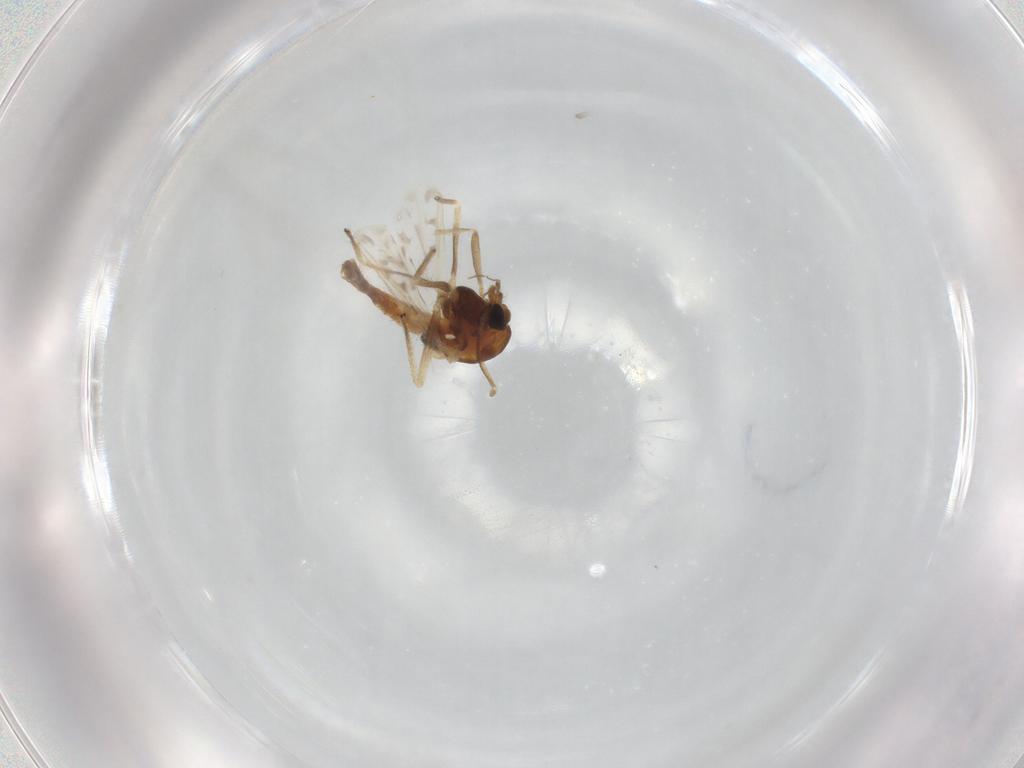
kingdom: Animalia
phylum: Arthropoda
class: Insecta
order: Diptera
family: Chironomidae
